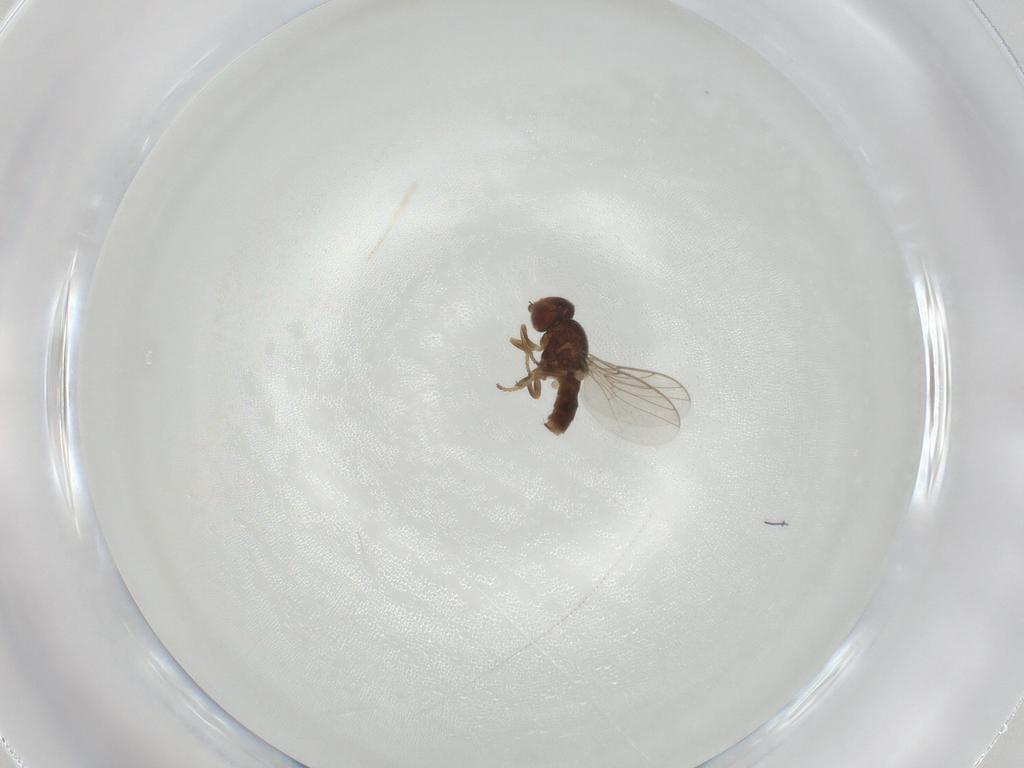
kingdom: Animalia
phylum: Arthropoda
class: Insecta
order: Diptera
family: Chloropidae
